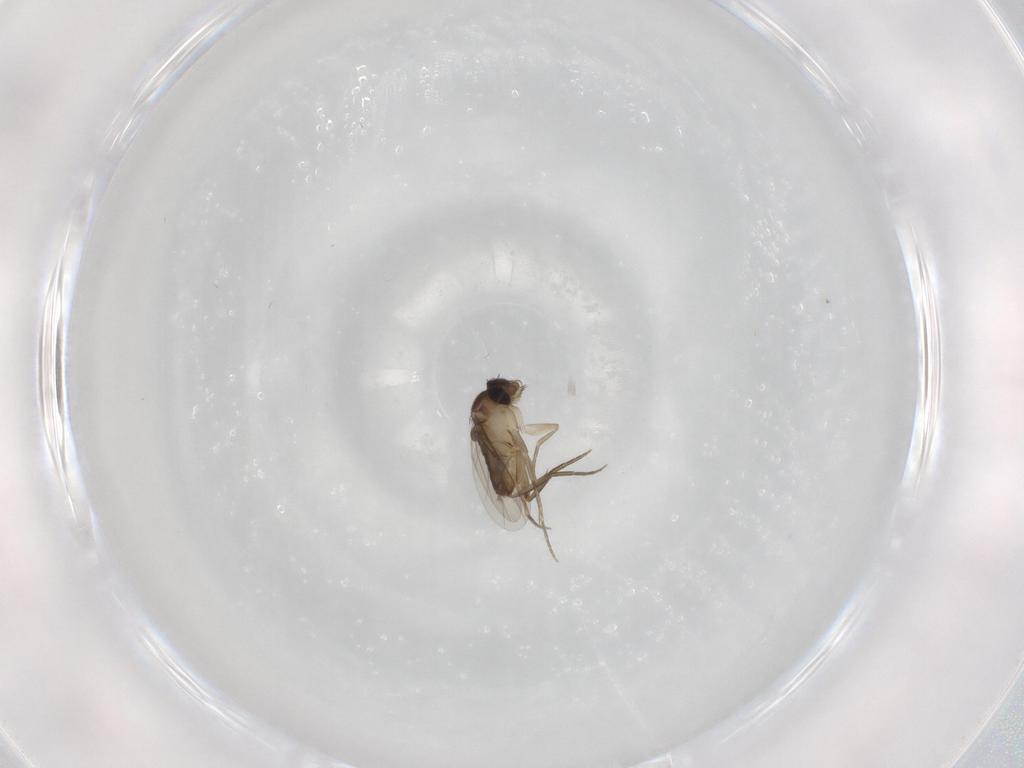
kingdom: Animalia
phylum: Arthropoda
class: Insecta
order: Diptera
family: Phoridae
